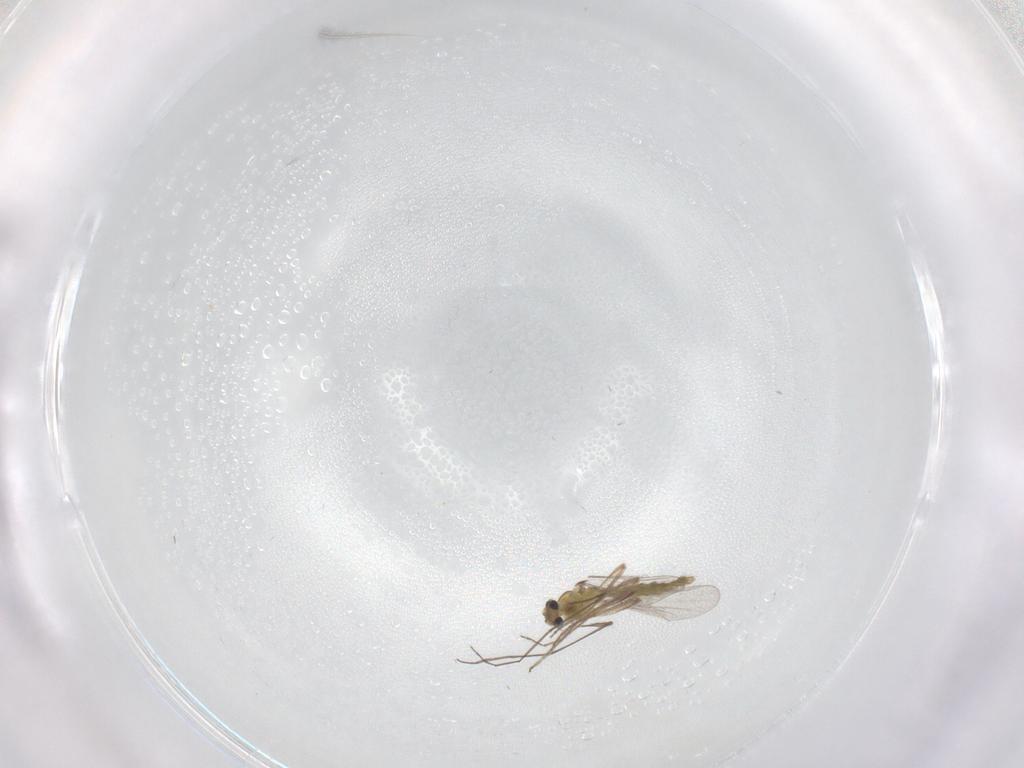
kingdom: Animalia
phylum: Arthropoda
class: Insecta
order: Diptera
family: Chironomidae
